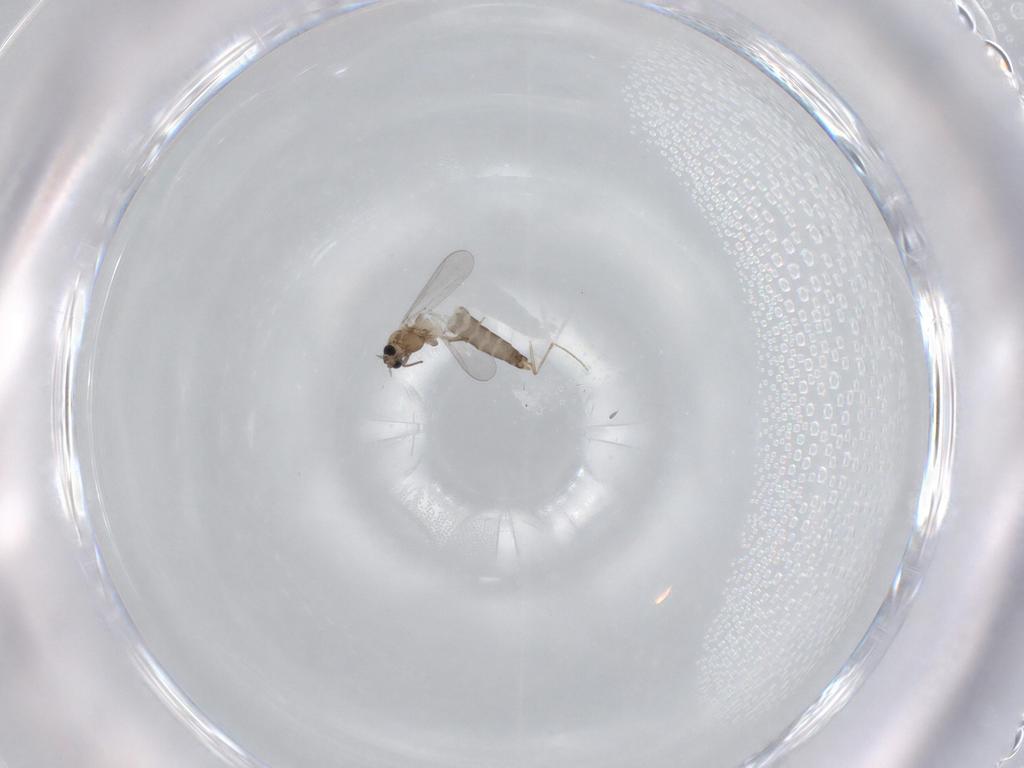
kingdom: Animalia
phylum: Arthropoda
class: Insecta
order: Diptera
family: Chironomidae
